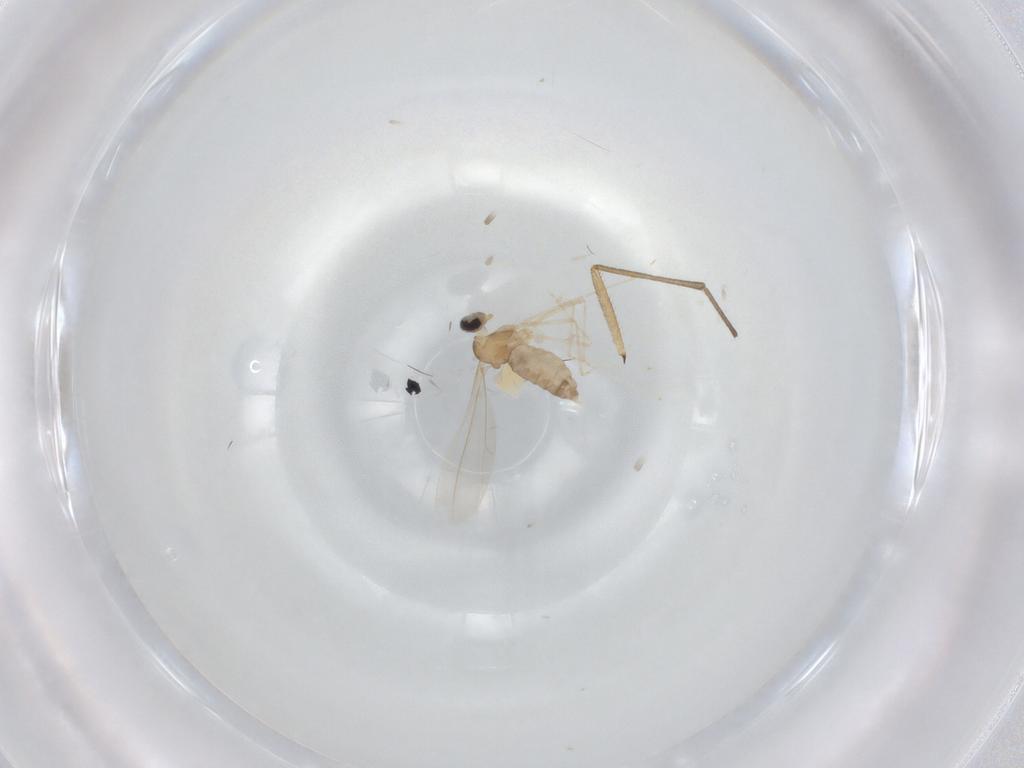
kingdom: Animalia
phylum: Arthropoda
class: Insecta
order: Diptera
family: Sarcophagidae
